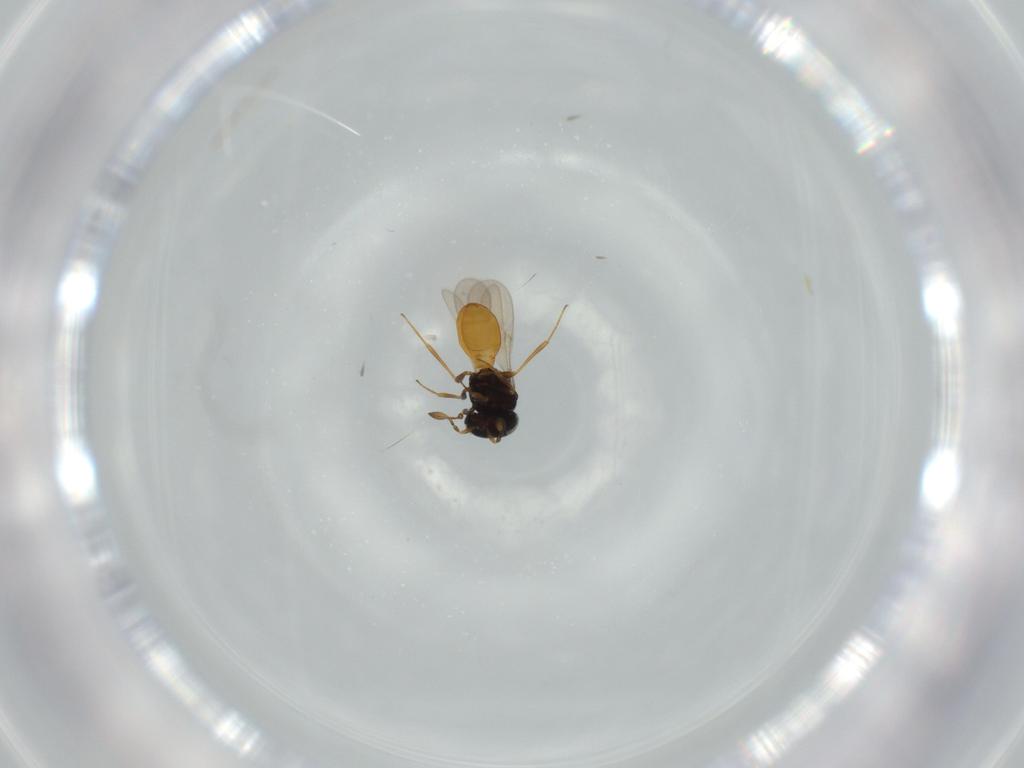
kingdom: Animalia
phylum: Arthropoda
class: Insecta
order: Hymenoptera
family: Scelionidae
